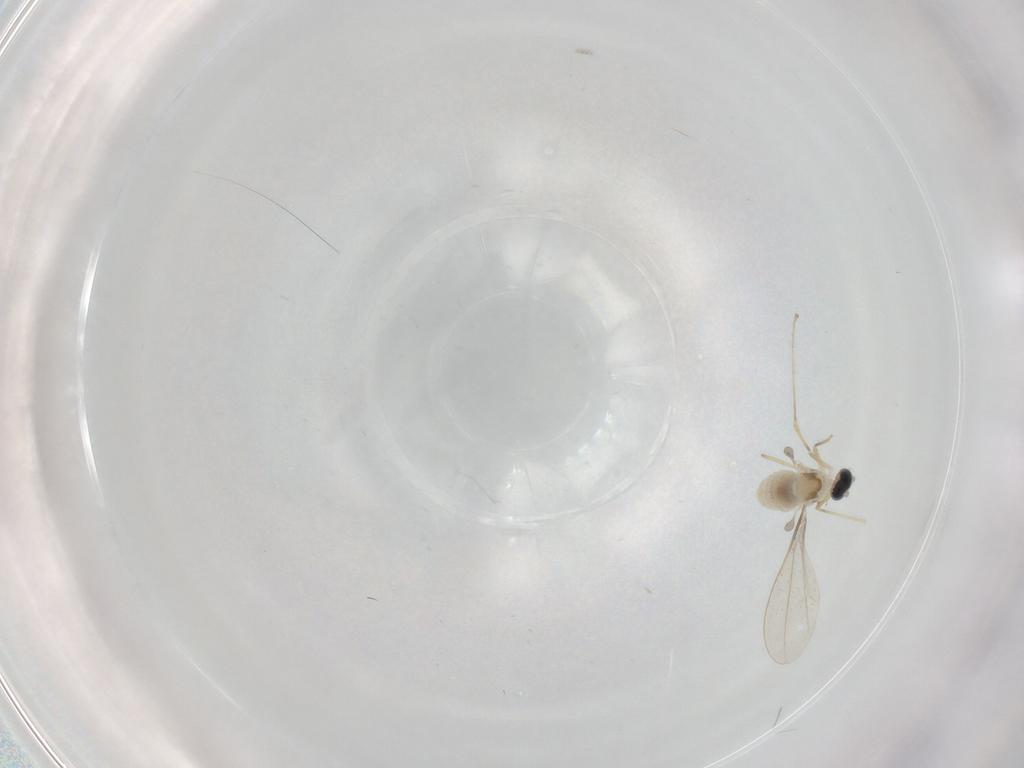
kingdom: Animalia
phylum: Arthropoda
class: Insecta
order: Diptera
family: Cecidomyiidae
